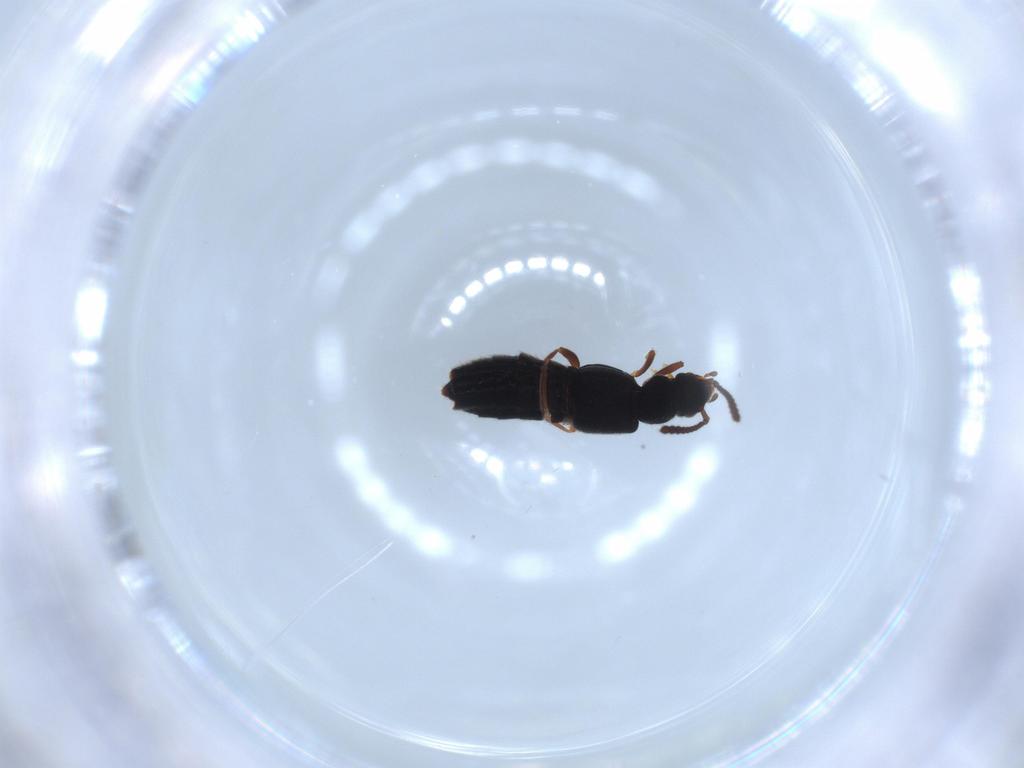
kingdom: Animalia
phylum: Arthropoda
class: Insecta
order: Coleoptera
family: Staphylinidae
